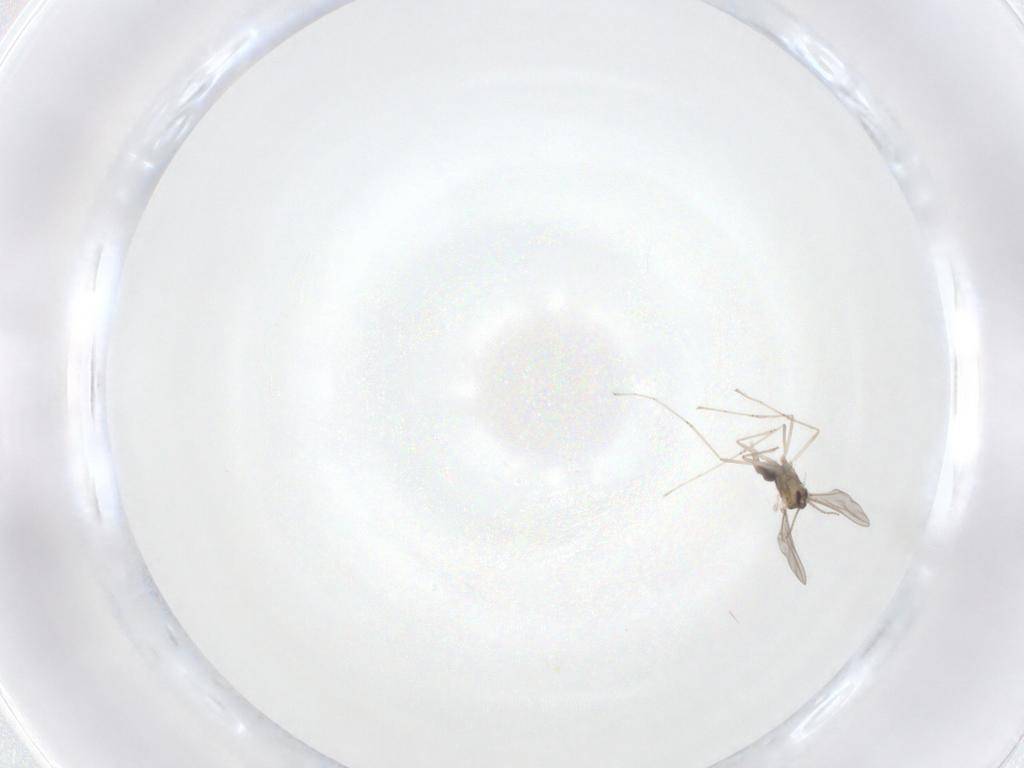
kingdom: Animalia
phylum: Arthropoda
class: Insecta
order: Diptera
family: Cecidomyiidae
